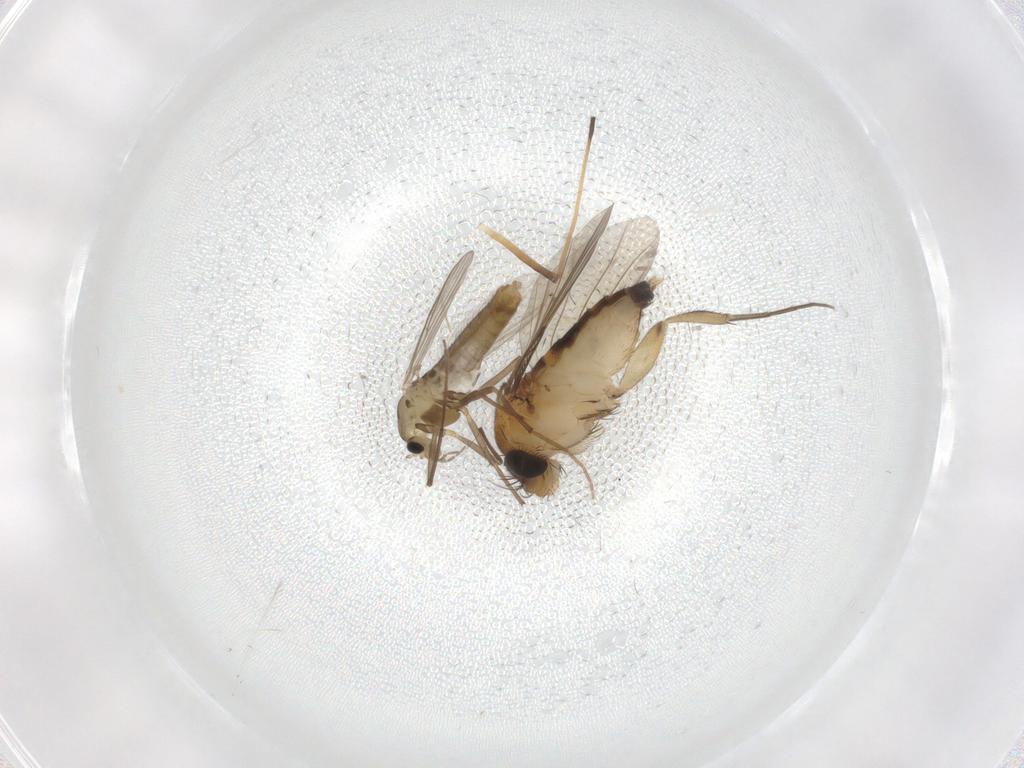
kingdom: Animalia
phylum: Arthropoda
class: Insecta
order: Diptera
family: Phoridae
